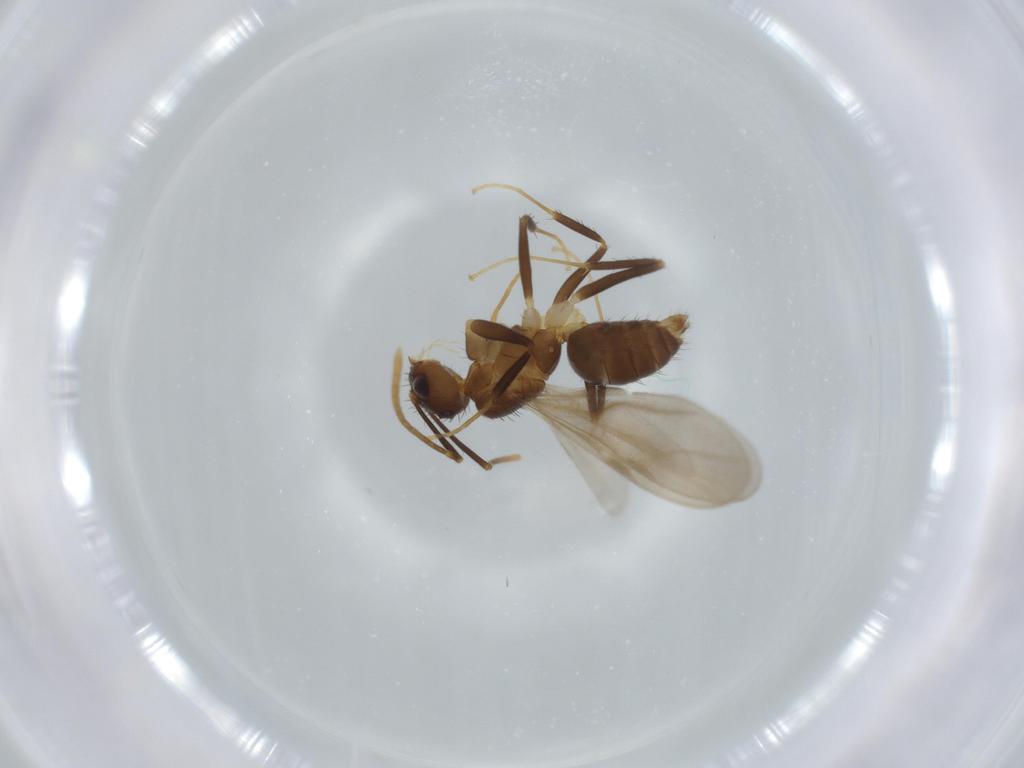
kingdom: Animalia
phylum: Arthropoda
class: Insecta
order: Hymenoptera
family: Formicidae
